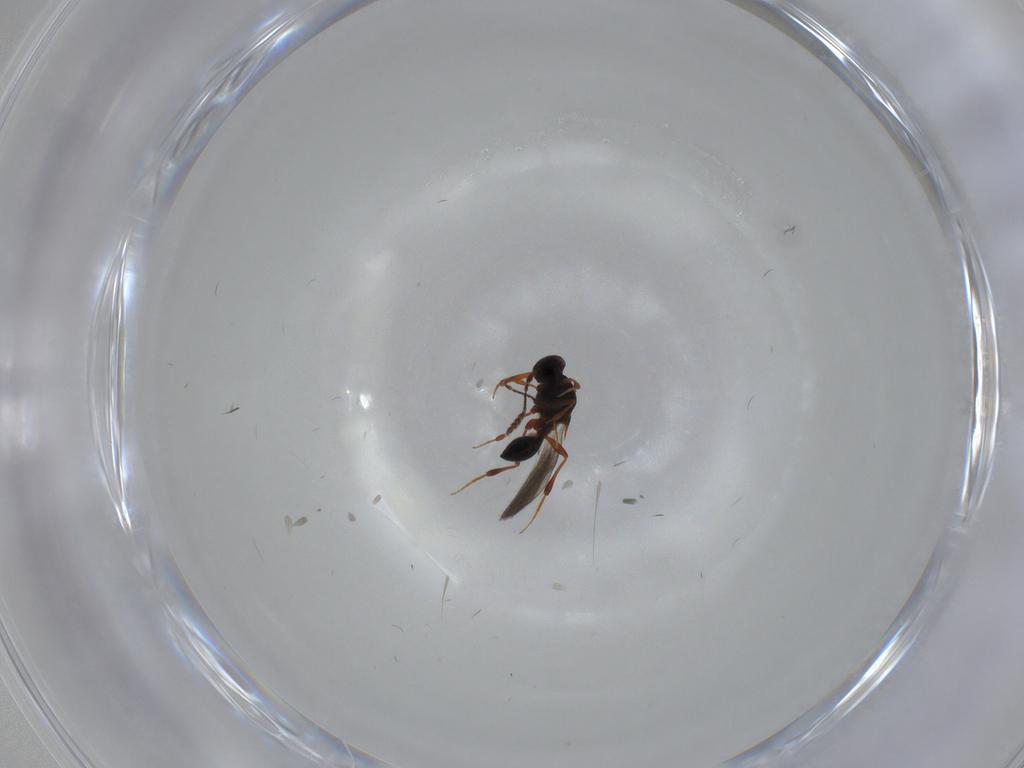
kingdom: Animalia
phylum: Arthropoda
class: Insecta
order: Hymenoptera
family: Platygastridae
